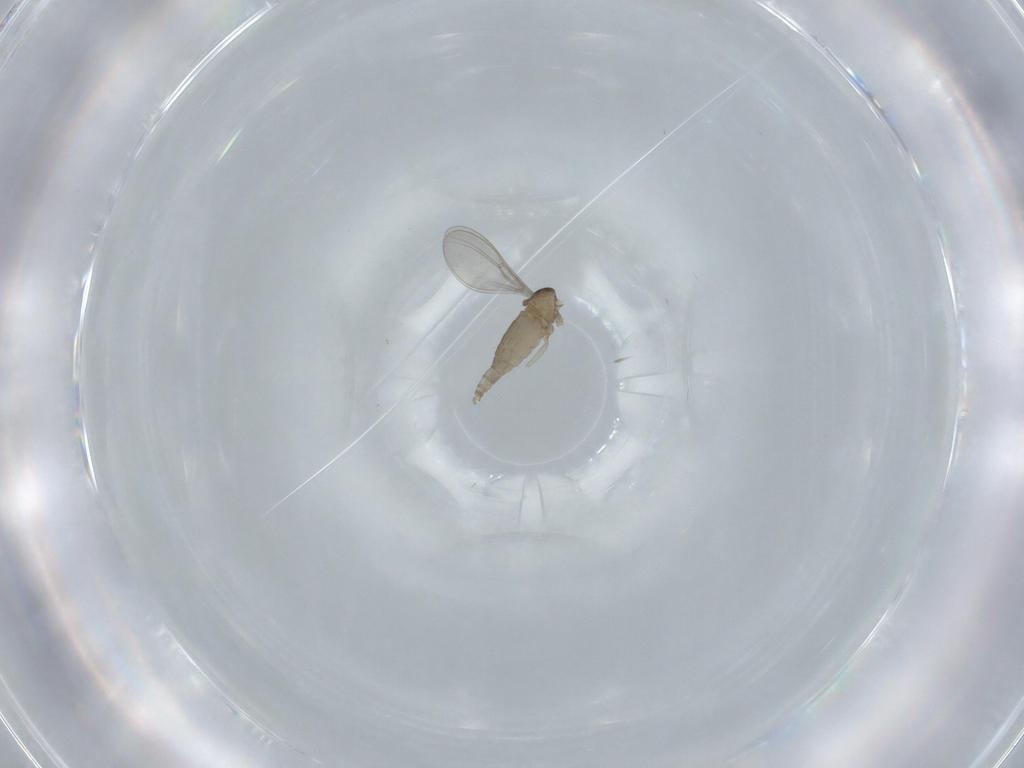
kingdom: Animalia
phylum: Arthropoda
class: Insecta
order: Diptera
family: Cecidomyiidae
